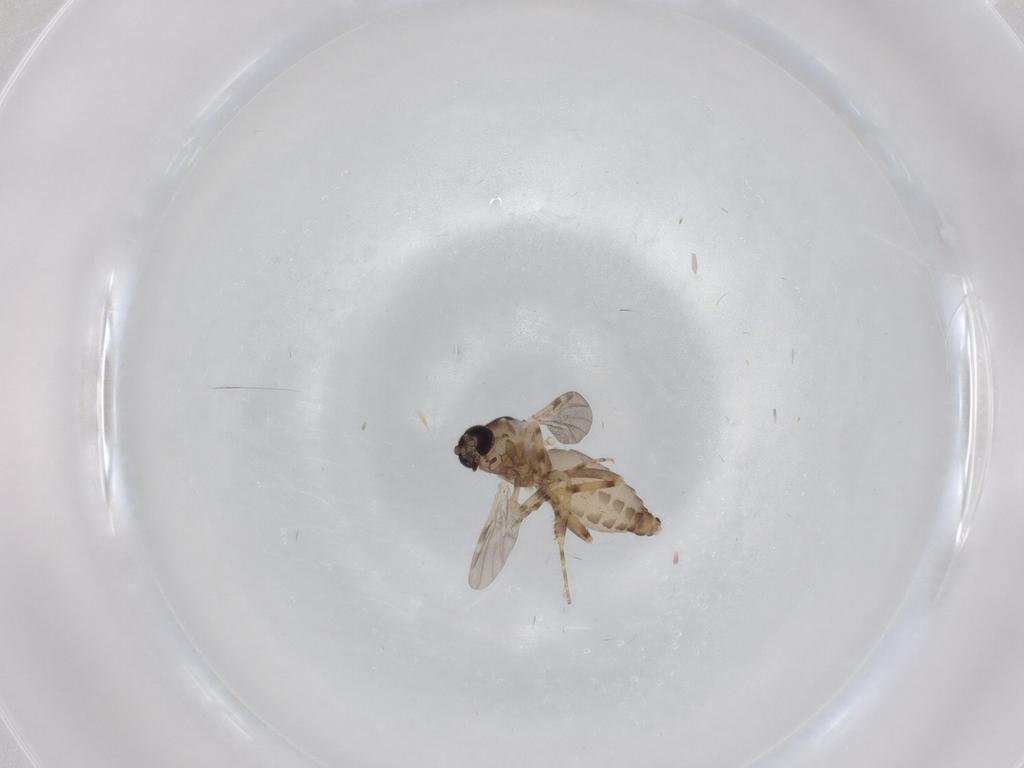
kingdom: Animalia
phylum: Arthropoda
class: Insecta
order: Diptera
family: Ceratopogonidae
